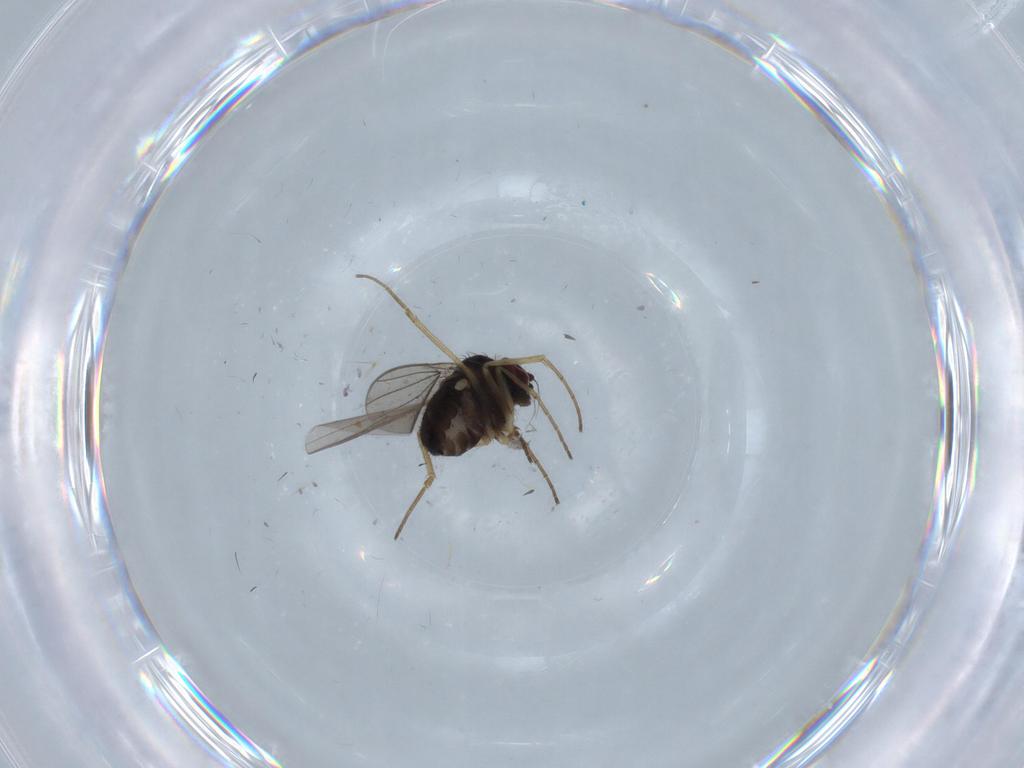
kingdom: Animalia
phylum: Arthropoda
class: Insecta
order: Diptera
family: Dolichopodidae
